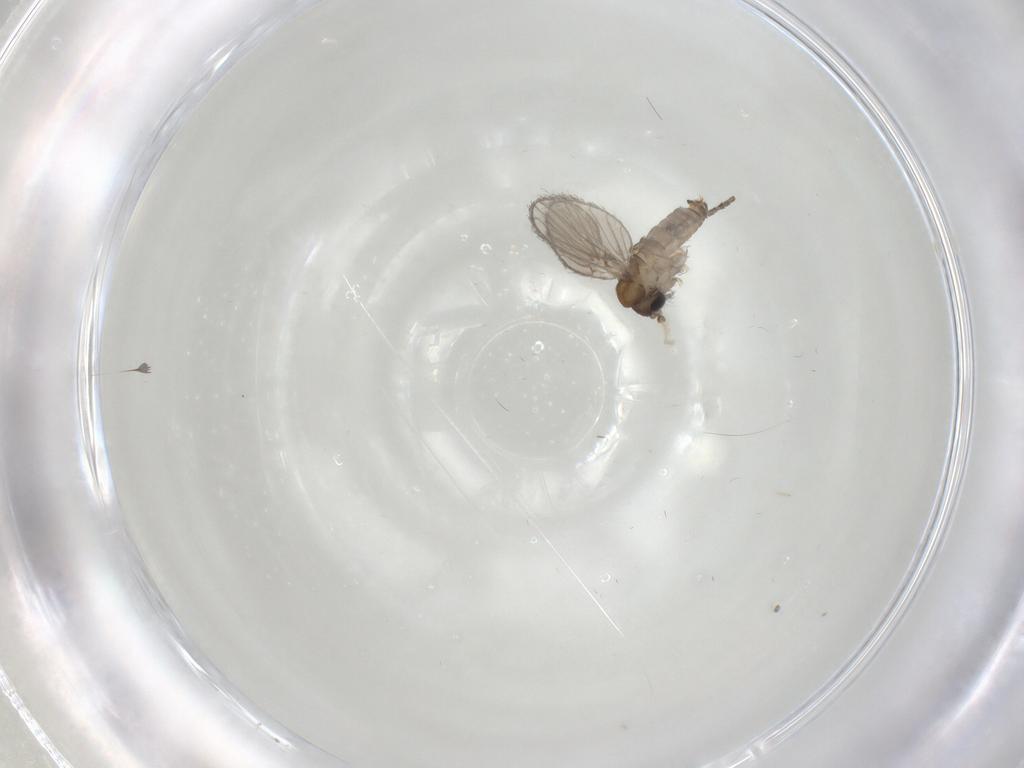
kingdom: Animalia
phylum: Arthropoda
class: Insecta
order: Diptera
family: Psychodidae
